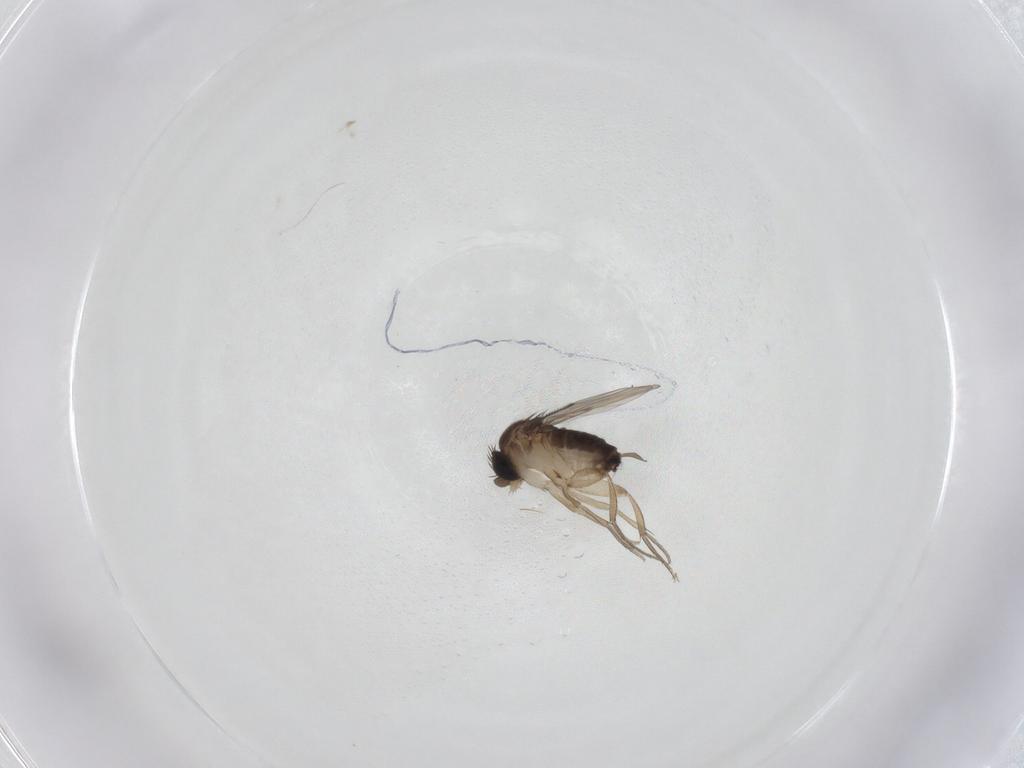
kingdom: Animalia
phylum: Arthropoda
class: Insecta
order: Diptera
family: Phoridae
